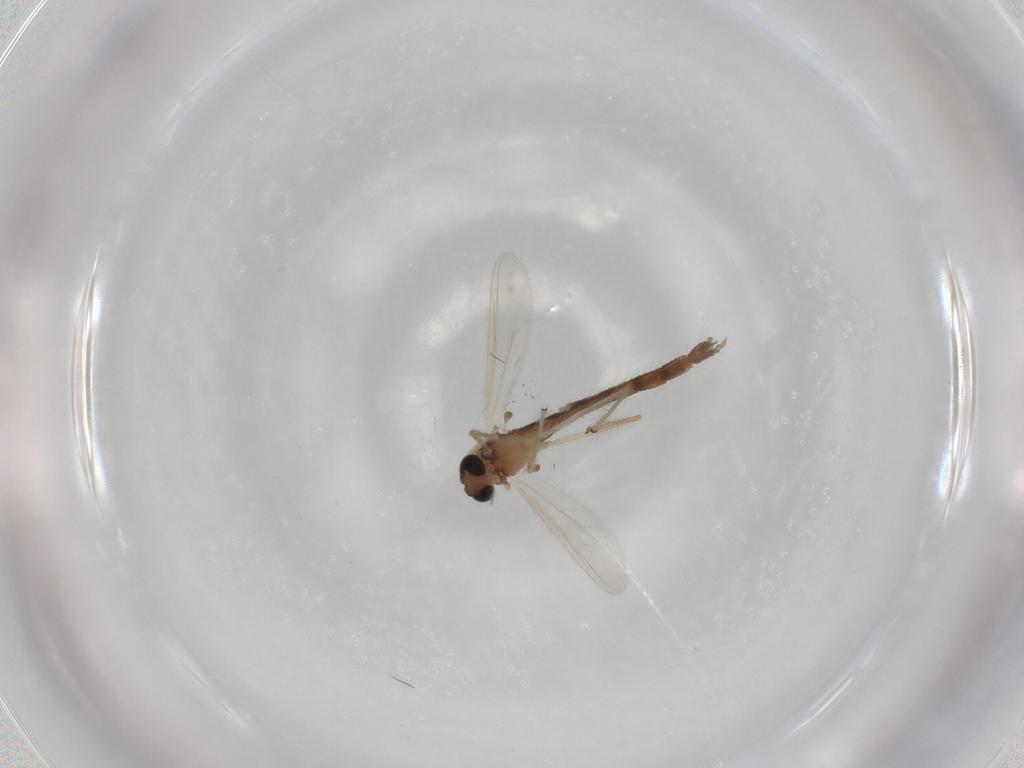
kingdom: Animalia
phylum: Arthropoda
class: Insecta
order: Diptera
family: Chironomidae
